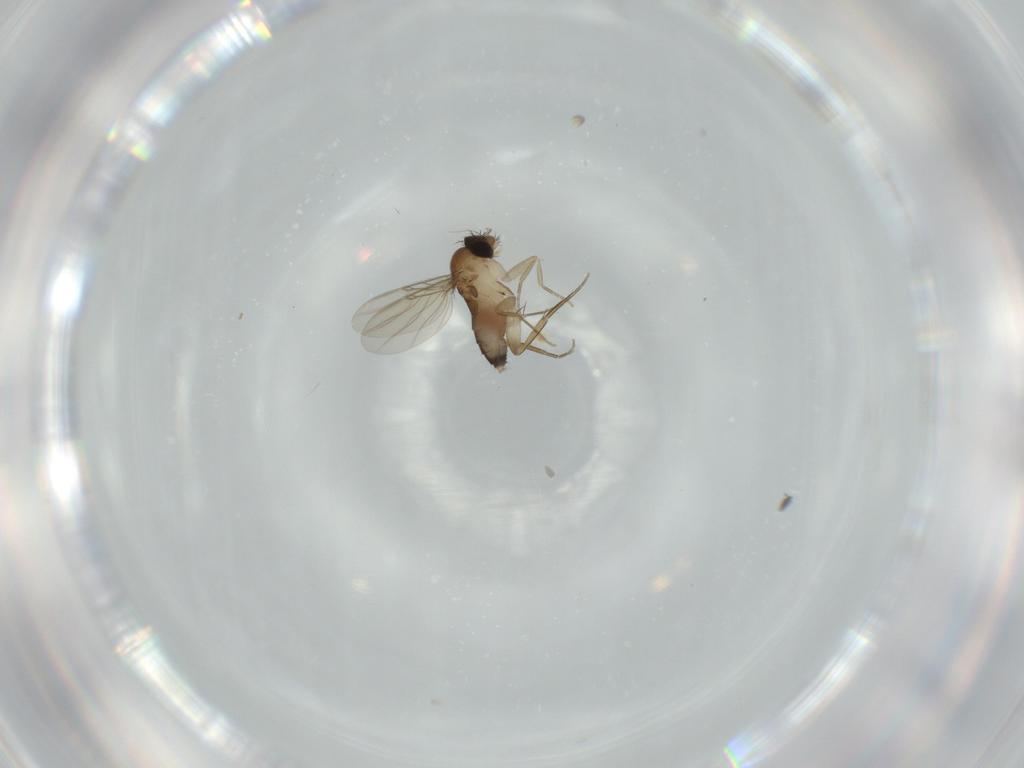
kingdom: Animalia
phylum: Arthropoda
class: Insecta
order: Diptera
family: Phoridae
